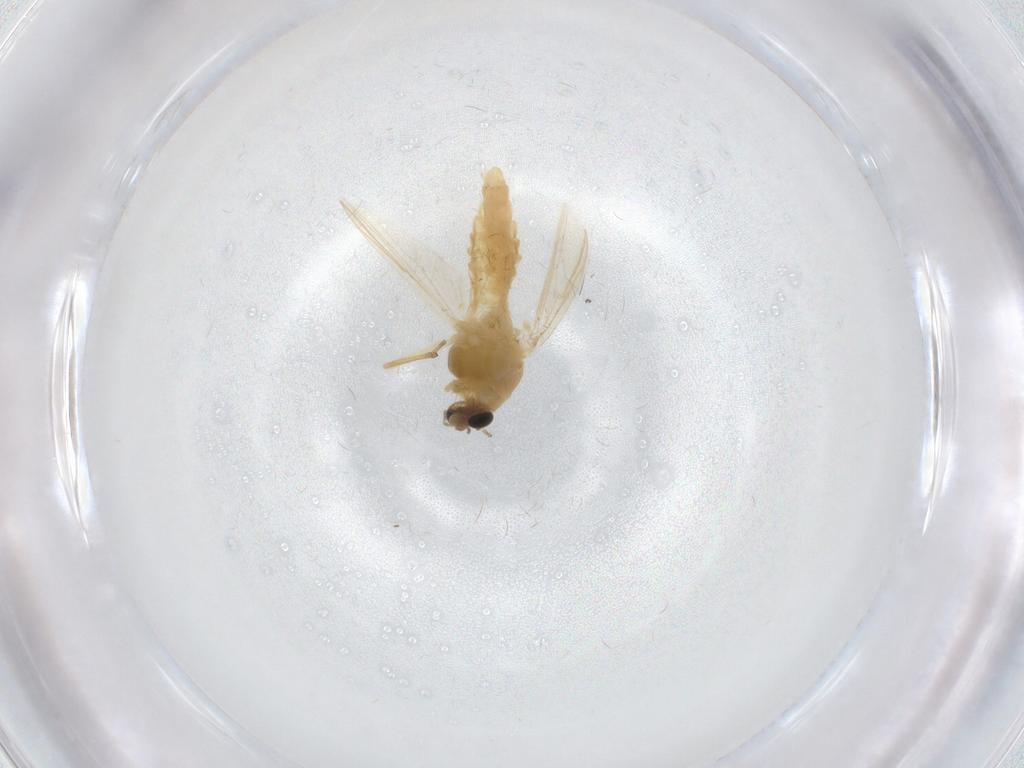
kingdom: Animalia
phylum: Arthropoda
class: Insecta
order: Diptera
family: Chironomidae
